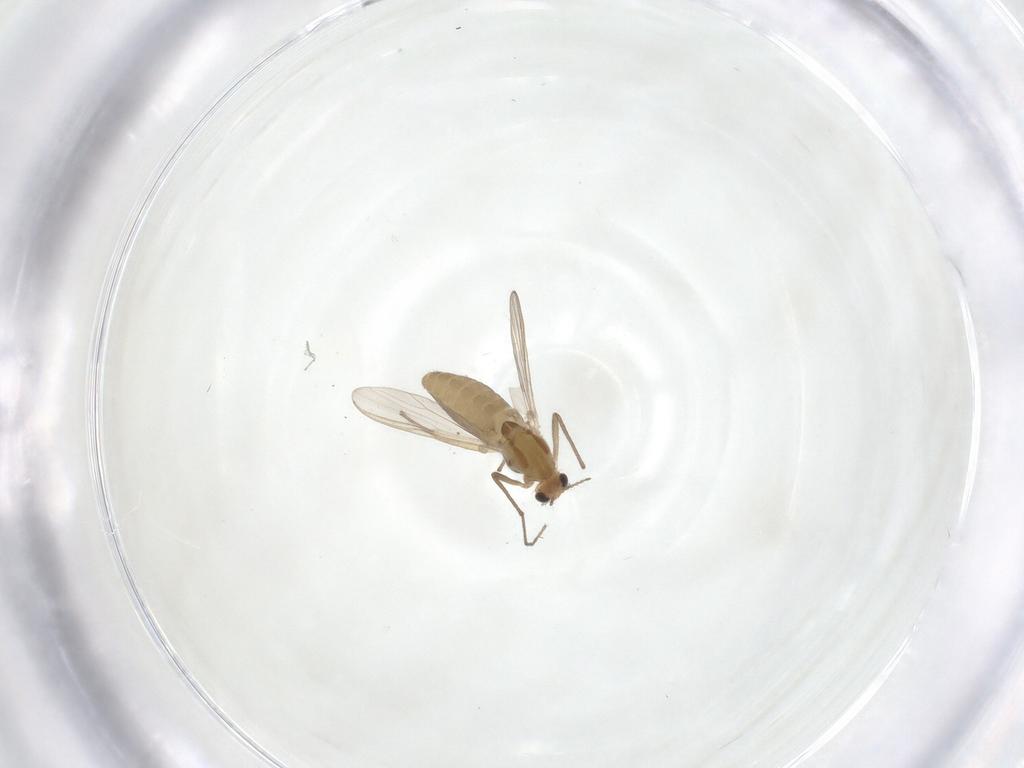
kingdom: Animalia
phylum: Arthropoda
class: Insecta
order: Diptera
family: Chironomidae
